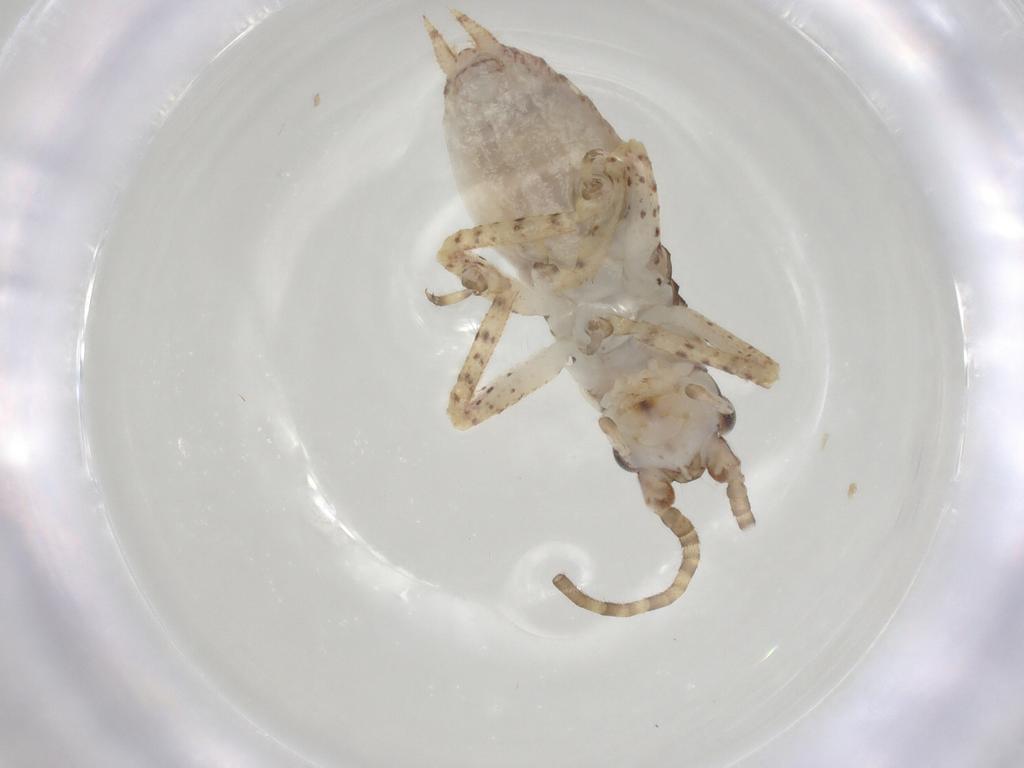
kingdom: Animalia
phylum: Arthropoda
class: Insecta
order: Orthoptera
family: Gryllidae
